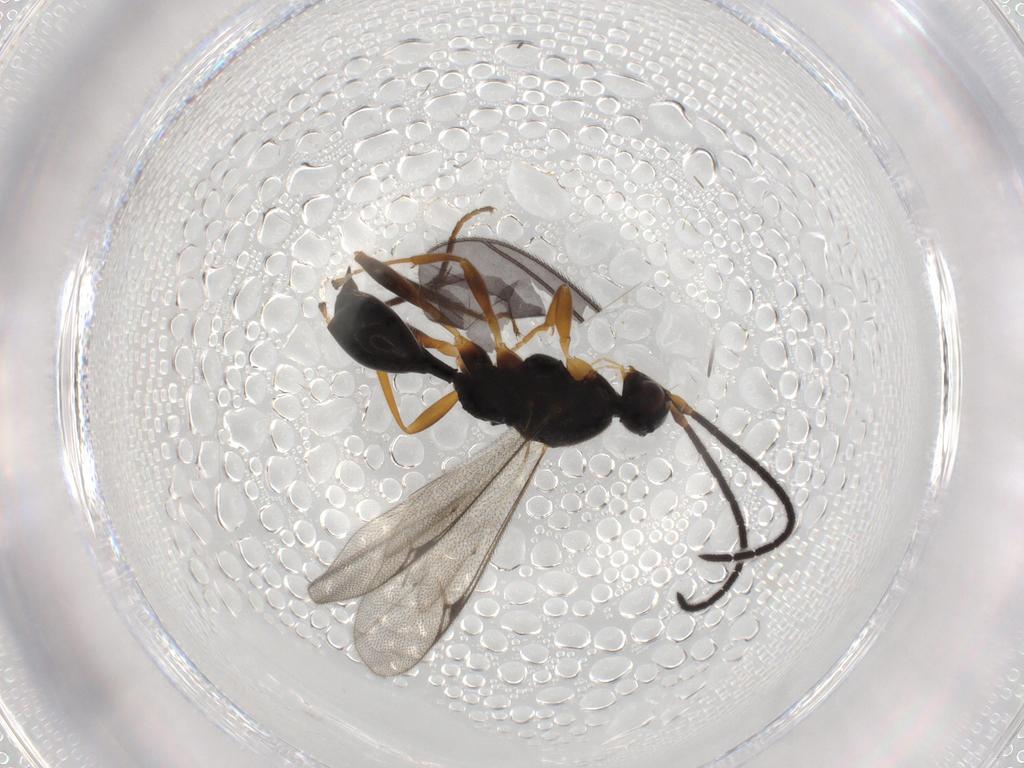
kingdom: Animalia
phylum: Arthropoda
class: Insecta
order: Hymenoptera
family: Proctotrupidae
